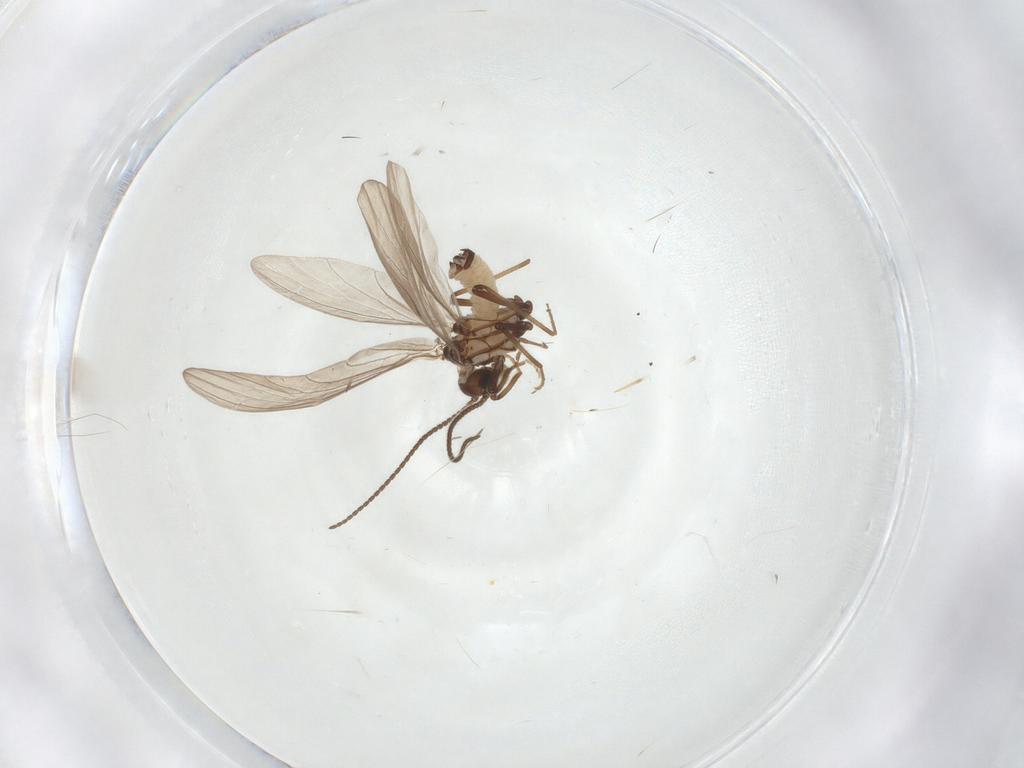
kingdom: Animalia
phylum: Arthropoda
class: Insecta
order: Neuroptera
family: Coniopterygidae
